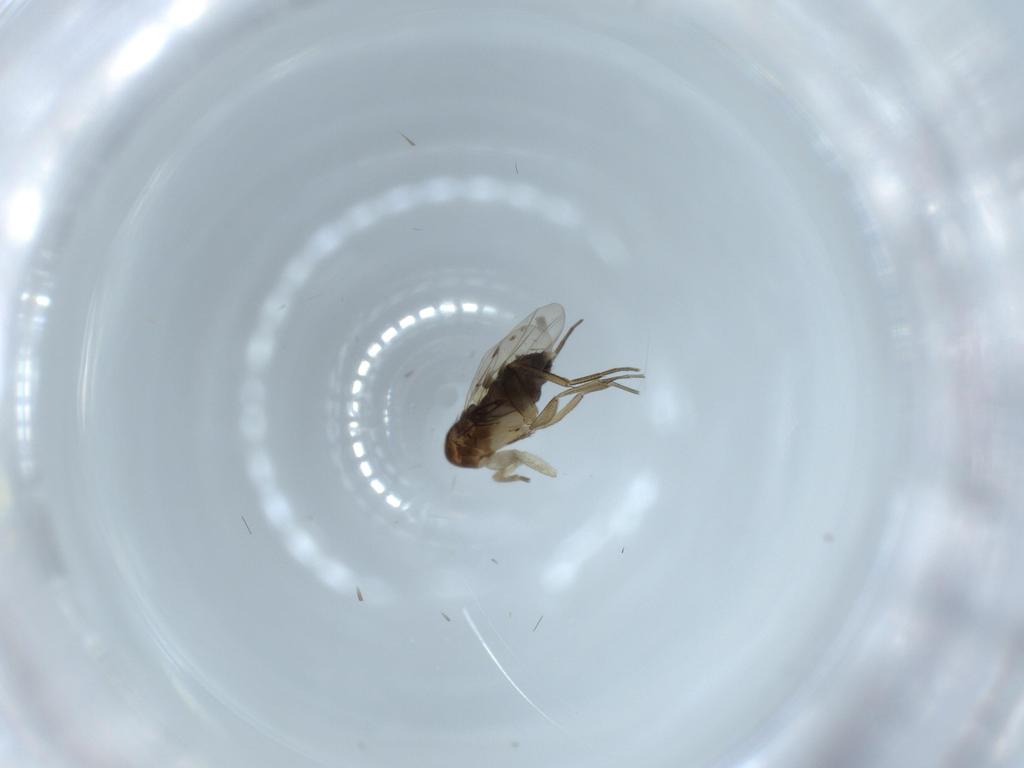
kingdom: Animalia
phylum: Arthropoda
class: Insecta
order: Diptera
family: Phoridae
